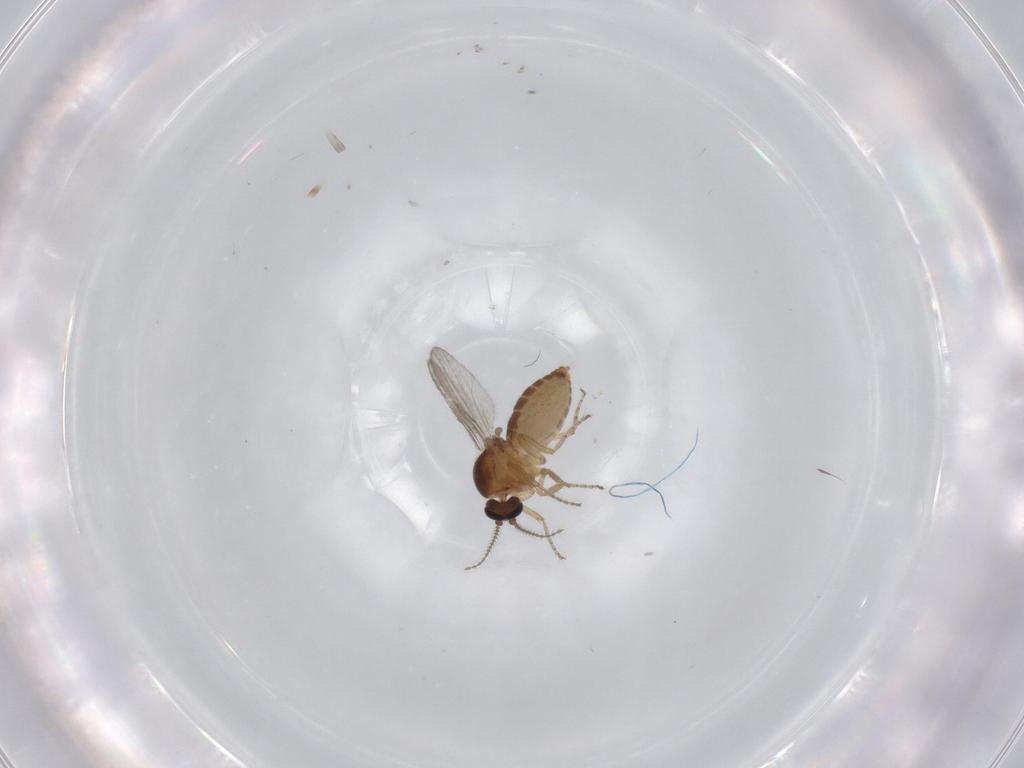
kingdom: Animalia
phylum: Arthropoda
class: Insecta
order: Diptera
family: Ceratopogonidae
